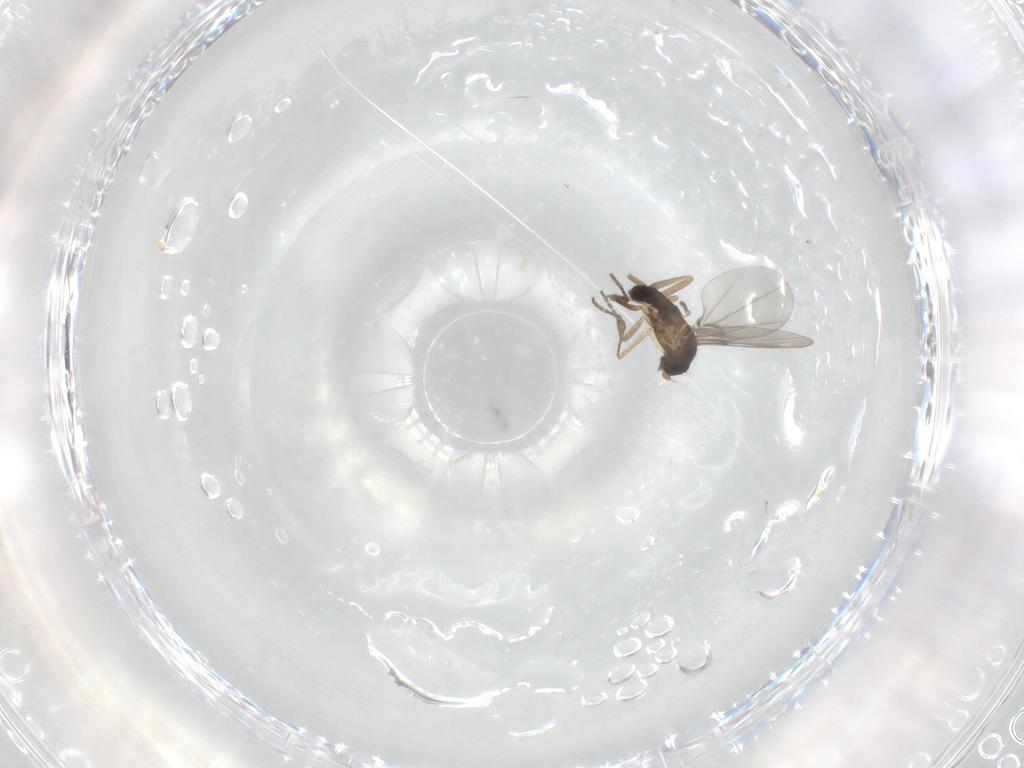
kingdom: Animalia
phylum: Arthropoda
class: Insecta
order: Diptera
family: Phoridae
